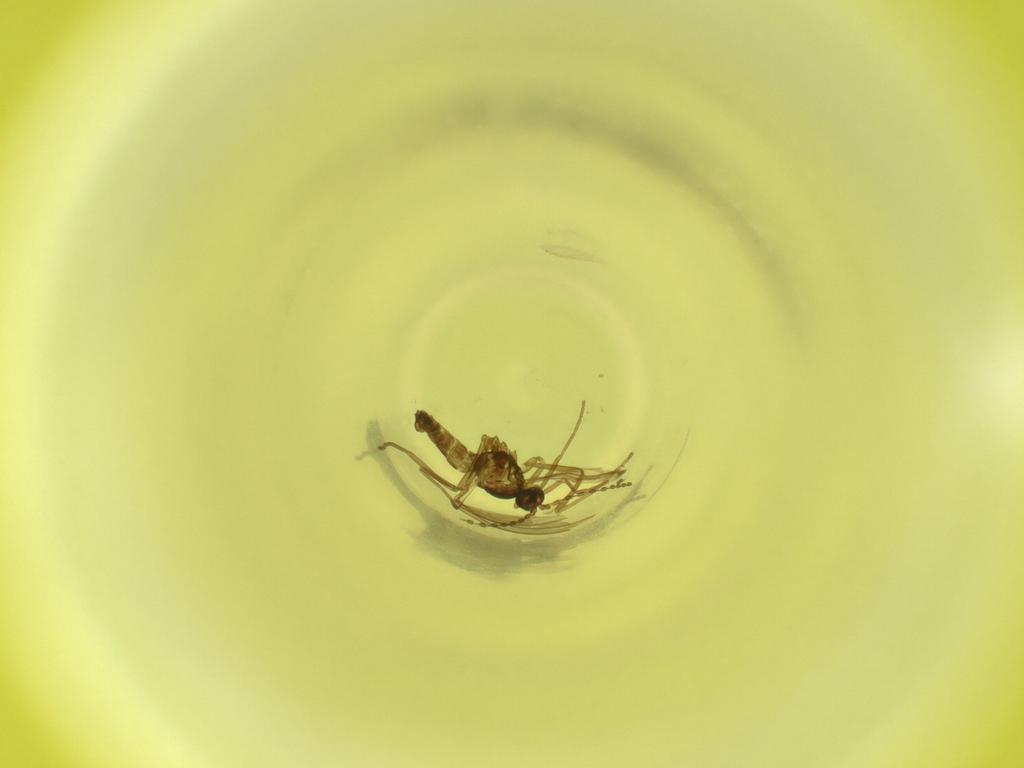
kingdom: Animalia
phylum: Arthropoda
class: Insecta
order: Diptera
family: Cecidomyiidae
